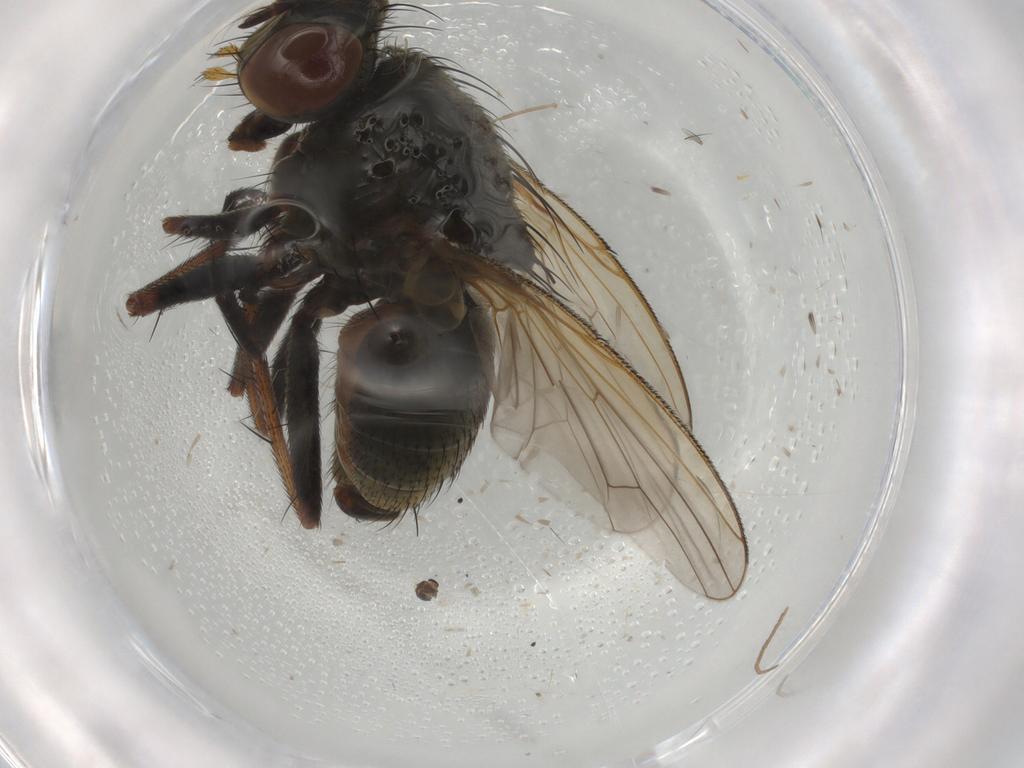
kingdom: Animalia
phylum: Arthropoda
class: Insecta
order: Diptera
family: Muscidae
